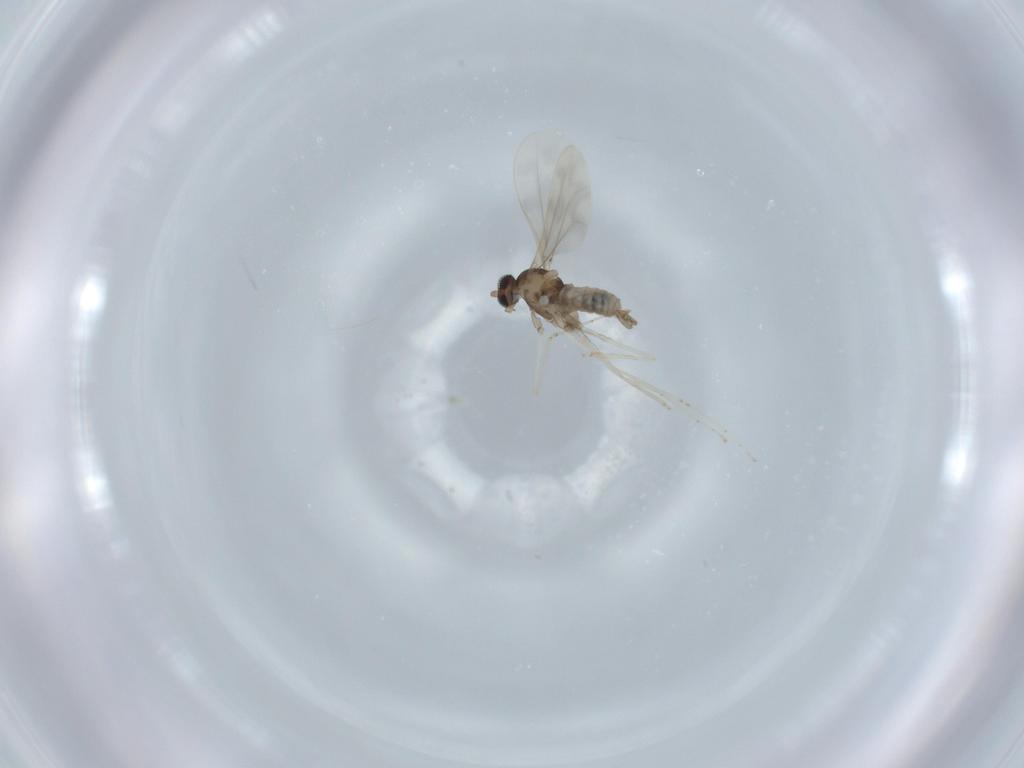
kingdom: Animalia
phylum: Arthropoda
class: Insecta
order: Diptera
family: Cecidomyiidae
